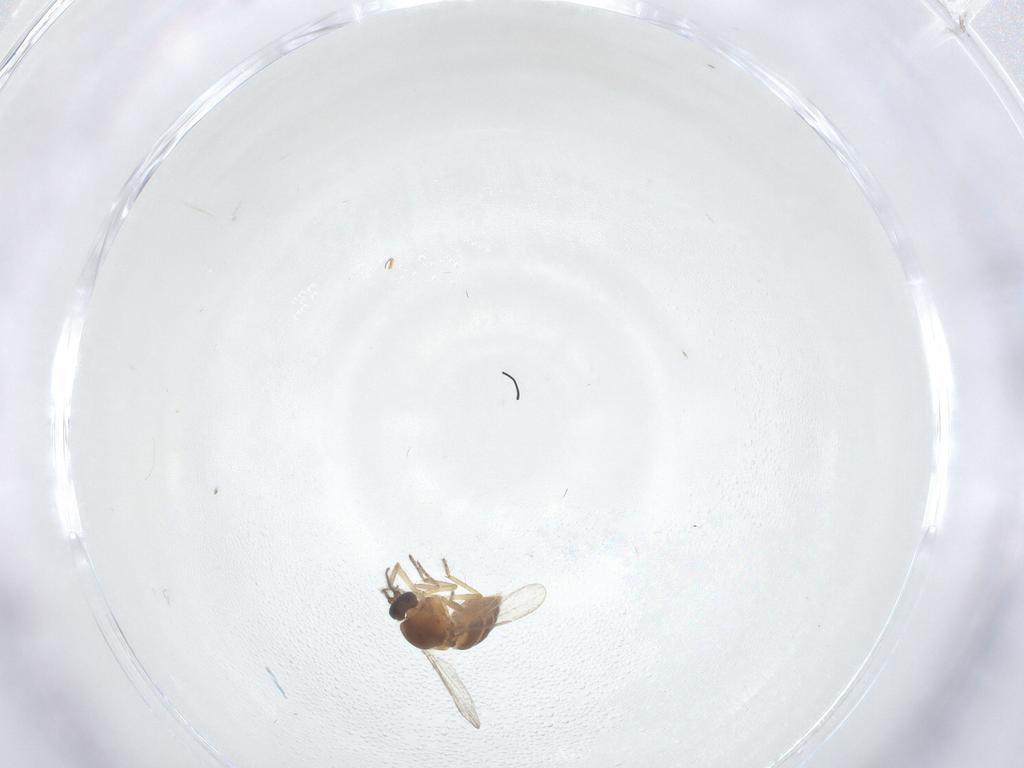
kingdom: Animalia
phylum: Arthropoda
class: Insecta
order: Diptera
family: Ceratopogonidae
